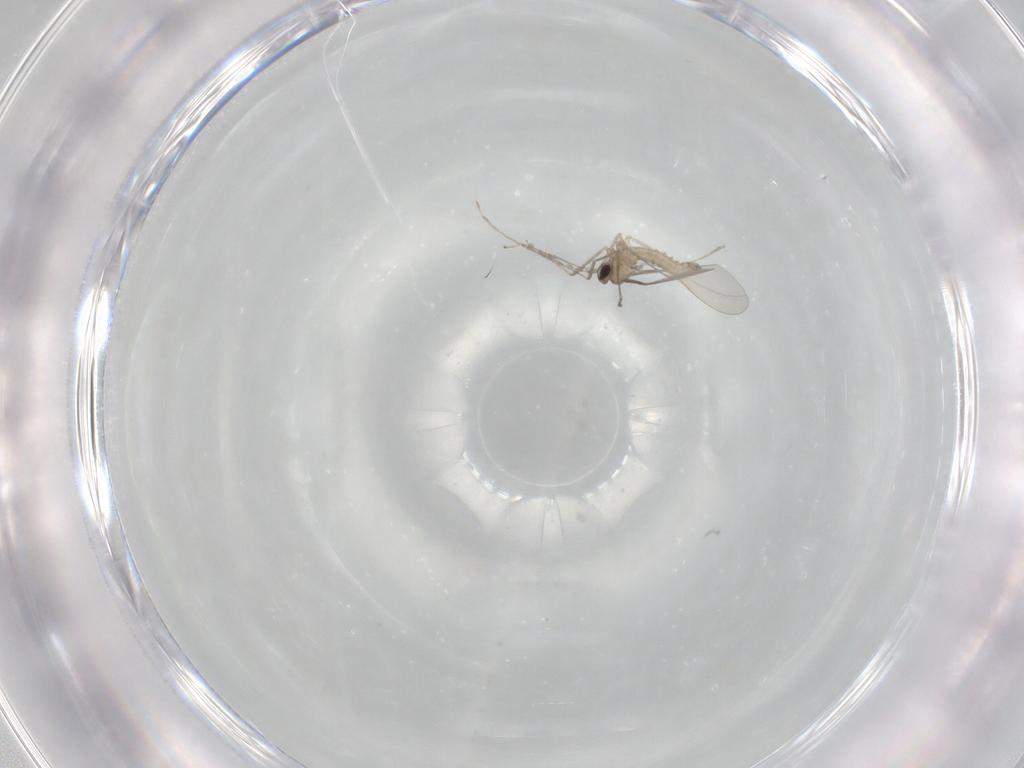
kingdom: Animalia
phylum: Arthropoda
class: Insecta
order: Diptera
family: Cecidomyiidae
